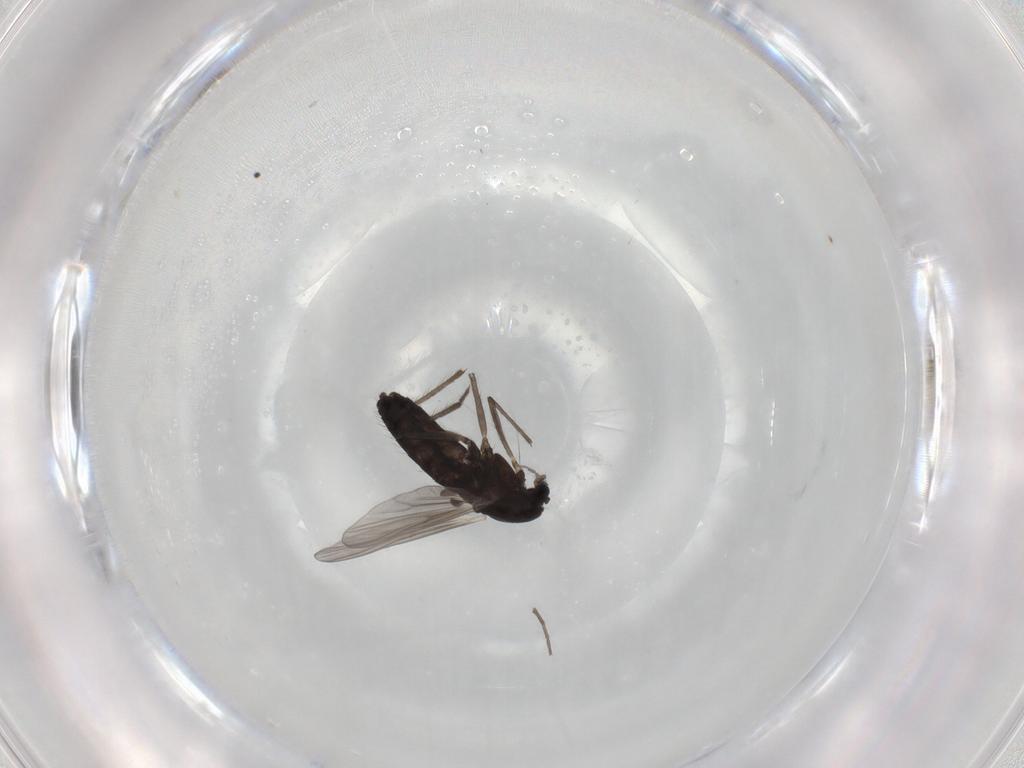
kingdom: Animalia
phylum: Arthropoda
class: Insecta
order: Diptera
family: Chironomidae
